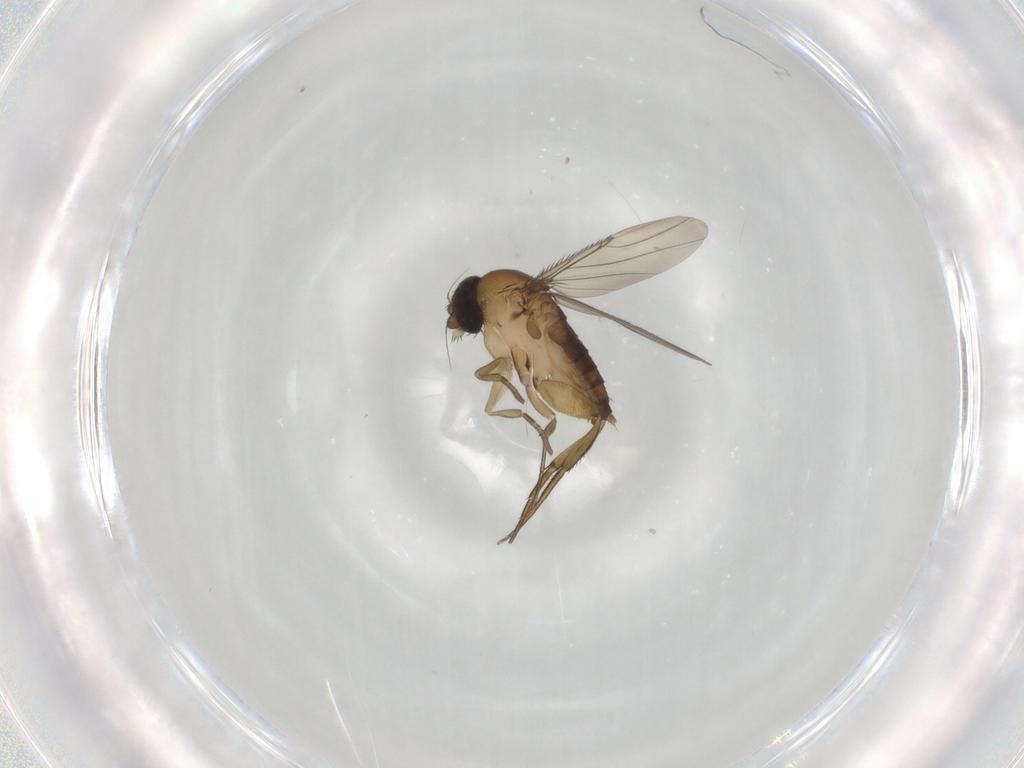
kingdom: Animalia
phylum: Arthropoda
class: Insecta
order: Diptera
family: Phoridae
